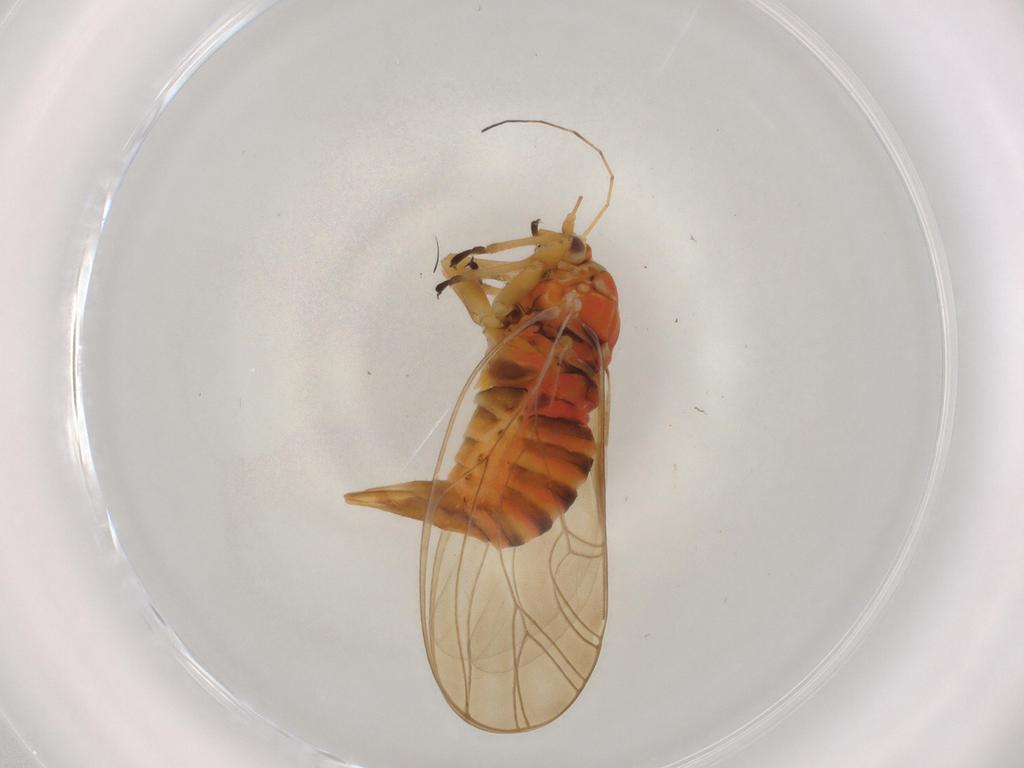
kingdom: Animalia
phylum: Arthropoda
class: Insecta
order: Hemiptera
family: Psyllidae
